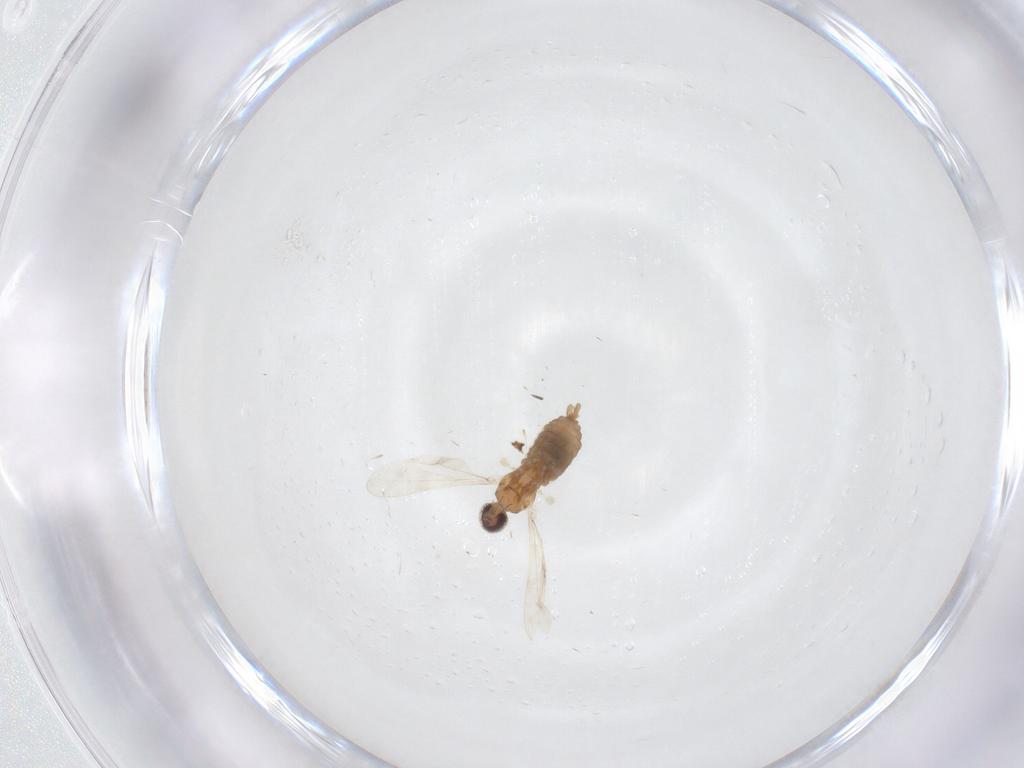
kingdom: Animalia
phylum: Arthropoda
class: Insecta
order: Diptera
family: Cecidomyiidae
